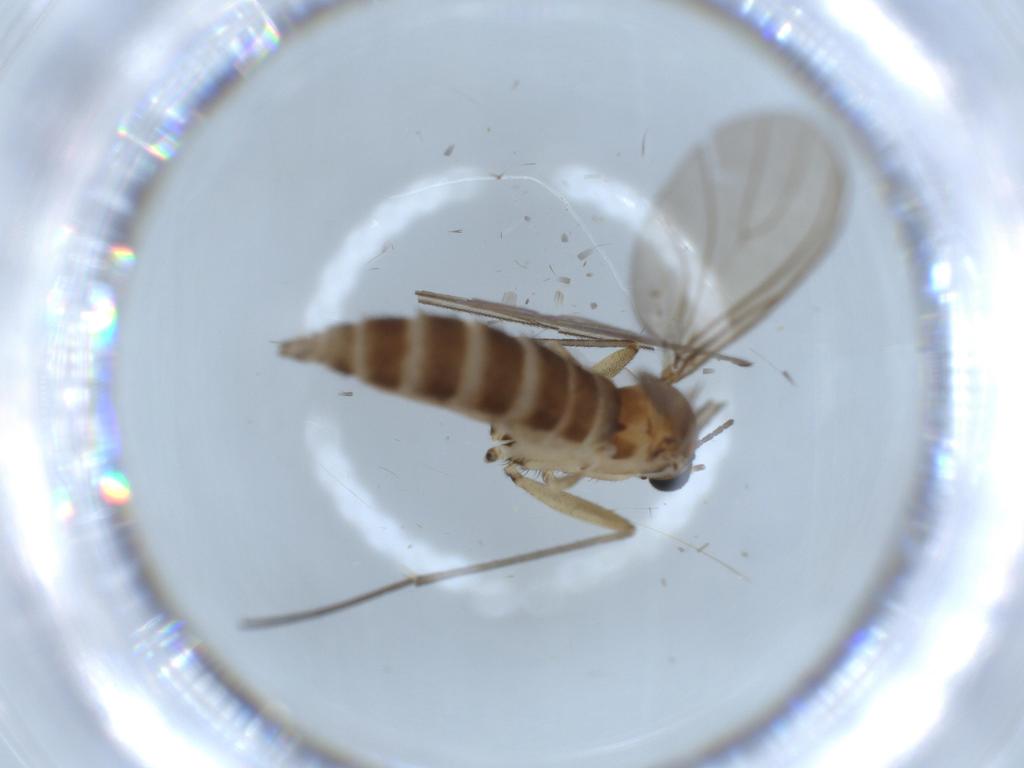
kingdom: Animalia
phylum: Arthropoda
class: Insecta
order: Diptera
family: Sciaridae
